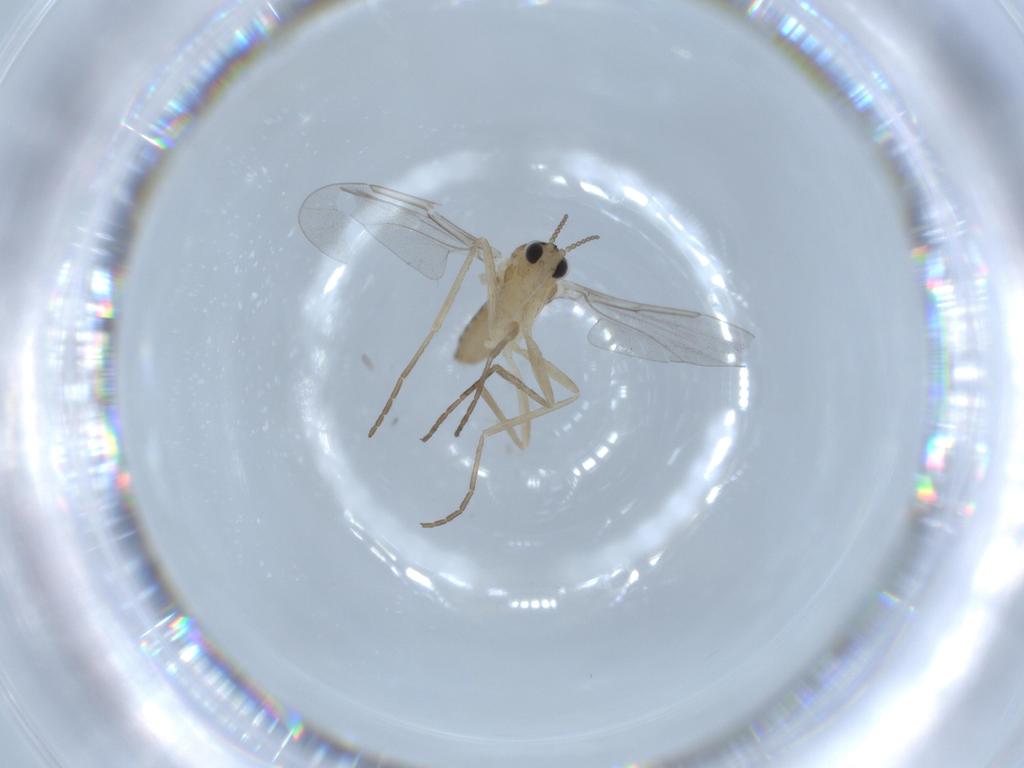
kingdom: Animalia
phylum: Arthropoda
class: Insecta
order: Diptera
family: Cecidomyiidae
